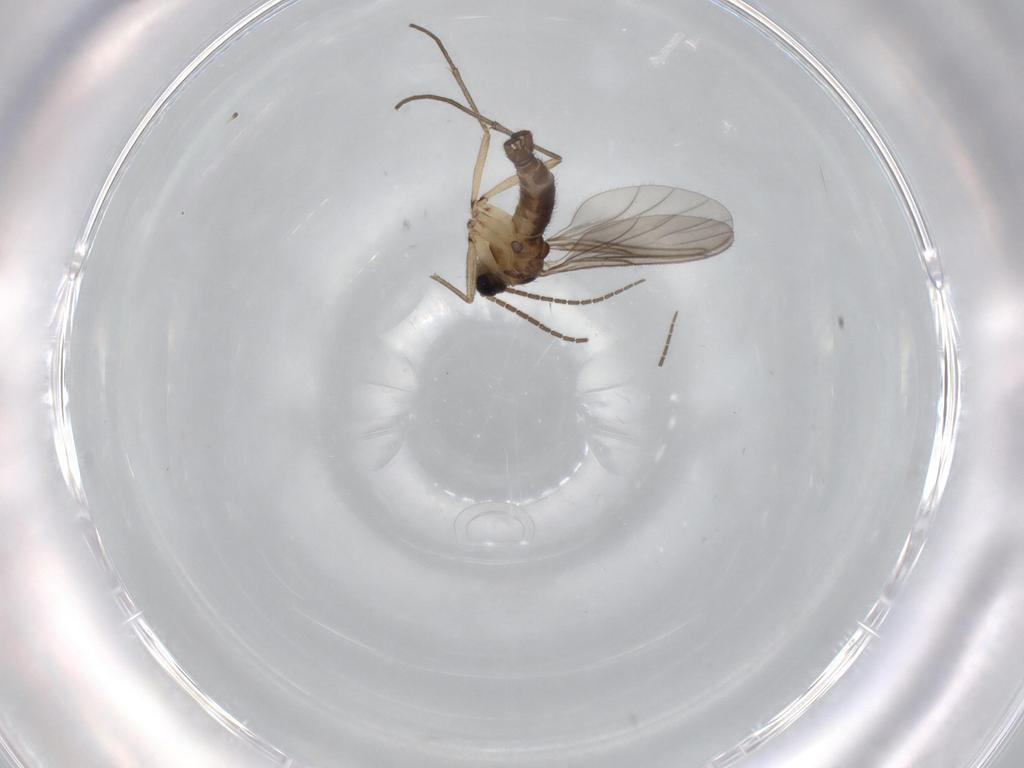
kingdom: Animalia
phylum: Arthropoda
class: Insecta
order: Diptera
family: Sciaridae
